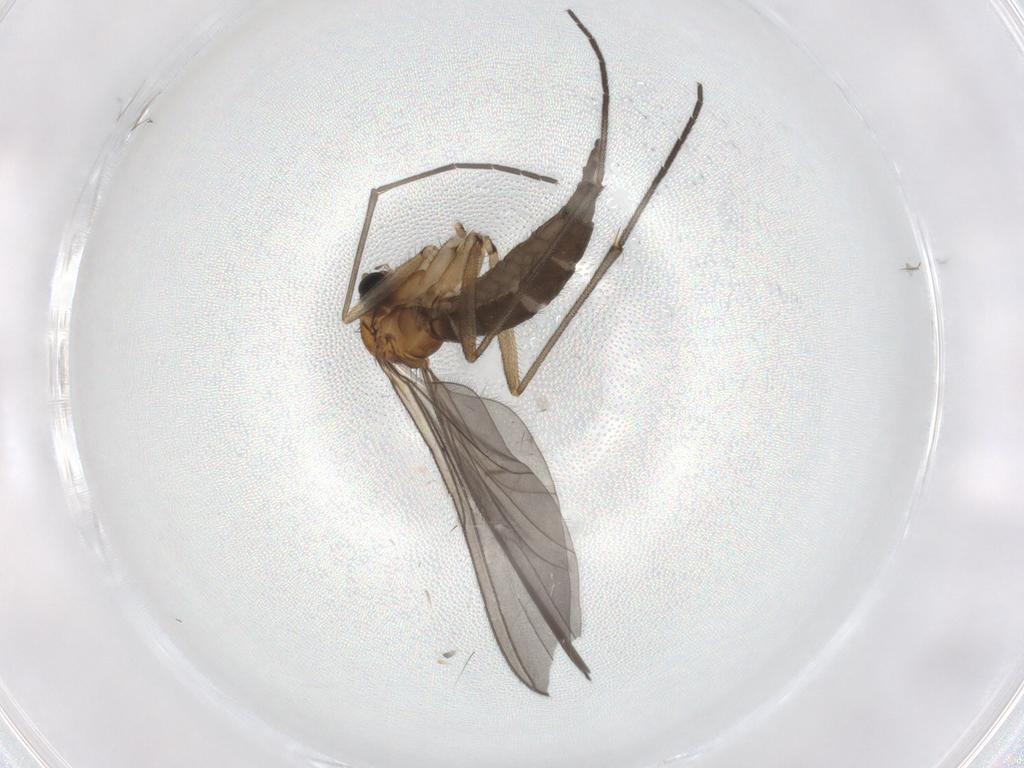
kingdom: Animalia
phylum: Arthropoda
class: Insecta
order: Diptera
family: Sciaridae
